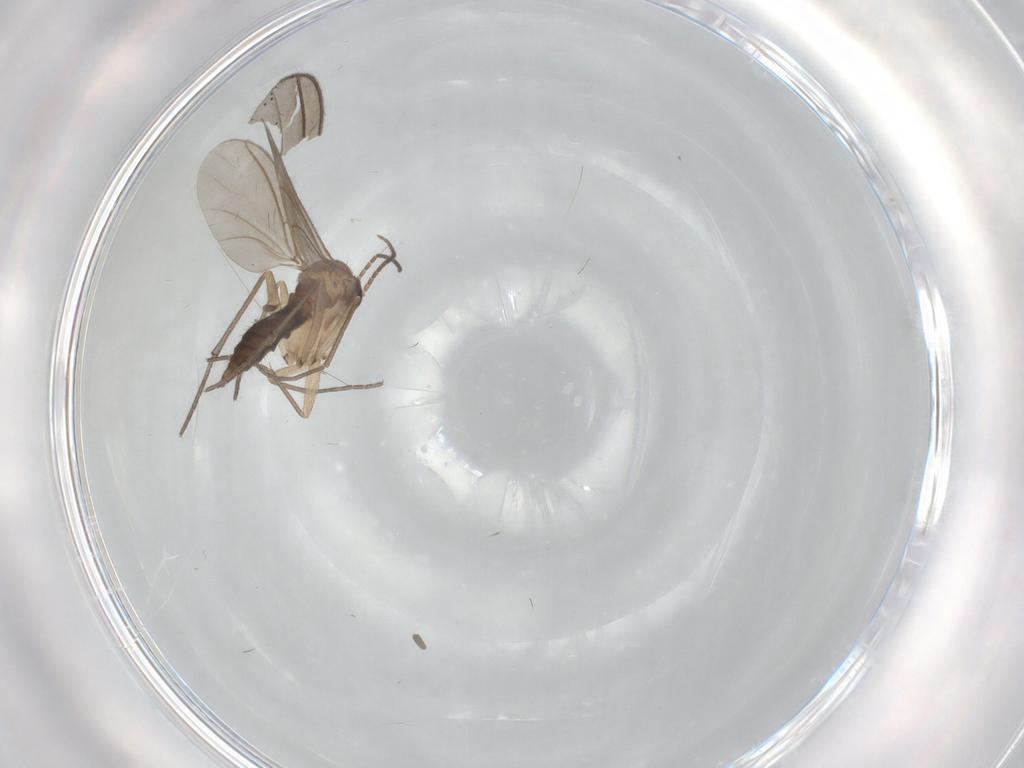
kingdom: Animalia
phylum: Arthropoda
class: Insecta
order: Diptera
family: Sciaridae
